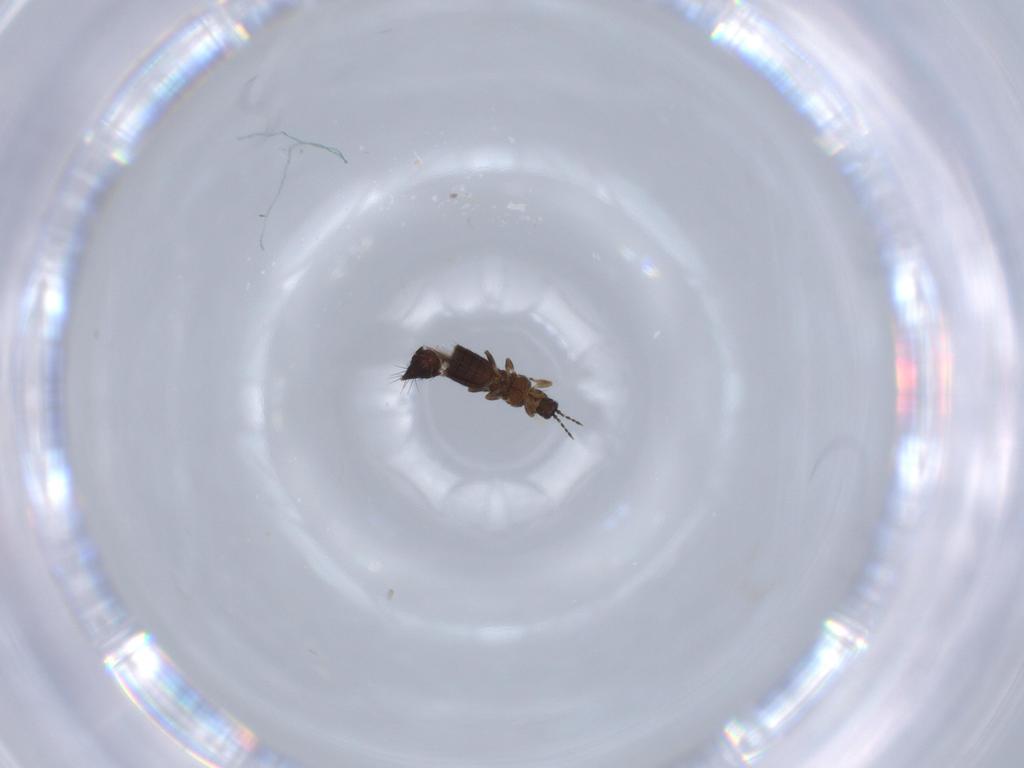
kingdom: Animalia
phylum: Arthropoda
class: Insecta
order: Thysanoptera
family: Thripidae
